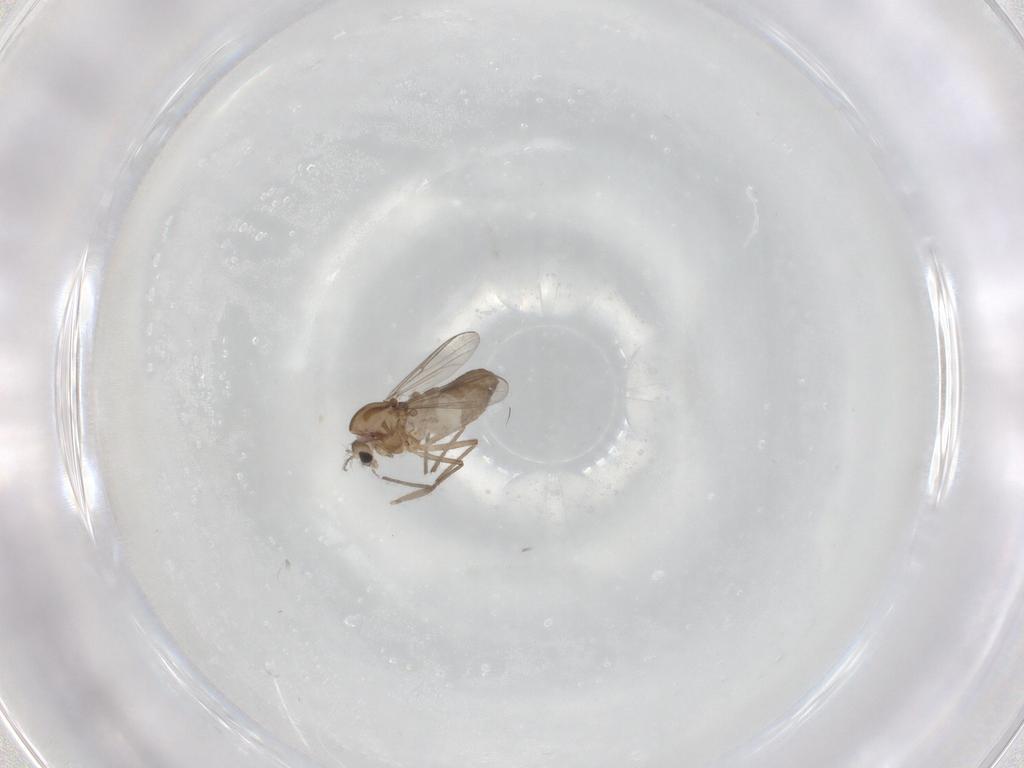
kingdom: Animalia
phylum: Arthropoda
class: Insecta
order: Diptera
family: Chironomidae
